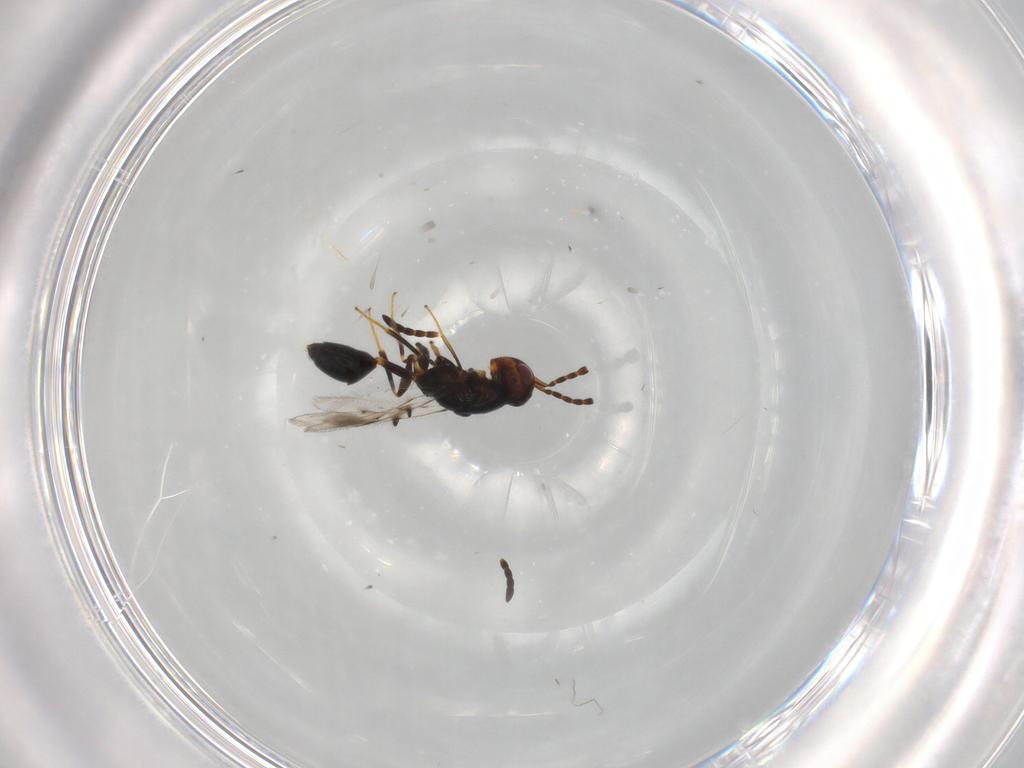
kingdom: Animalia
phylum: Arthropoda
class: Insecta
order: Hymenoptera
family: Cerocephalidae
